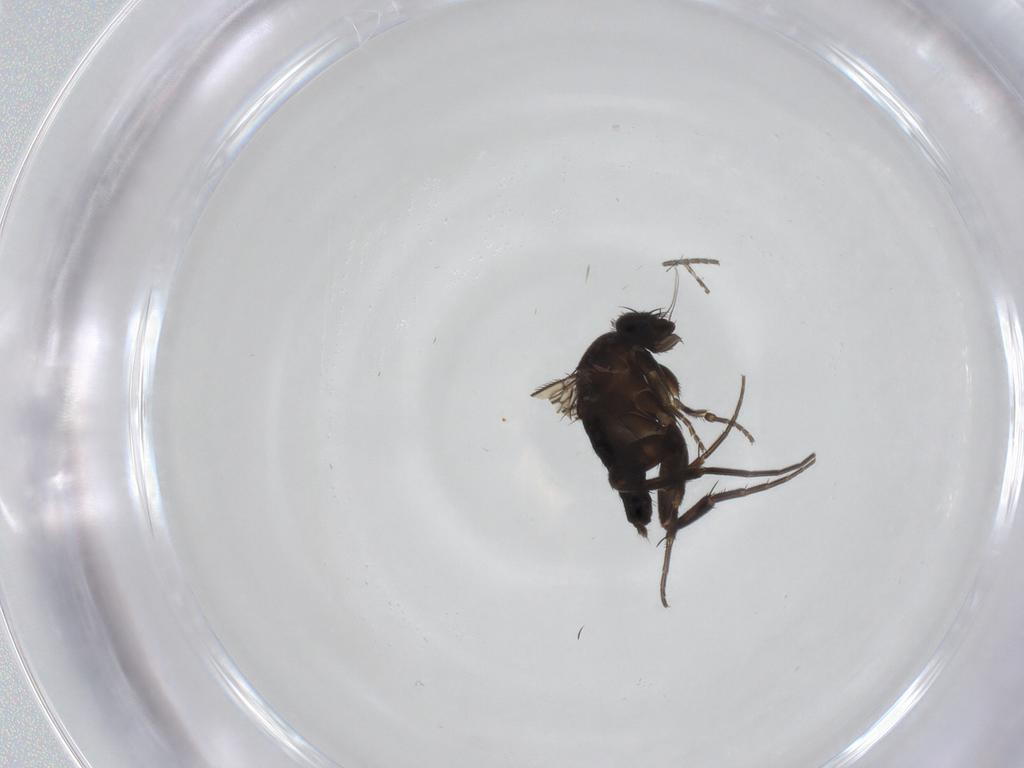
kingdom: Animalia
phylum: Arthropoda
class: Insecta
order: Diptera
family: Phoridae
